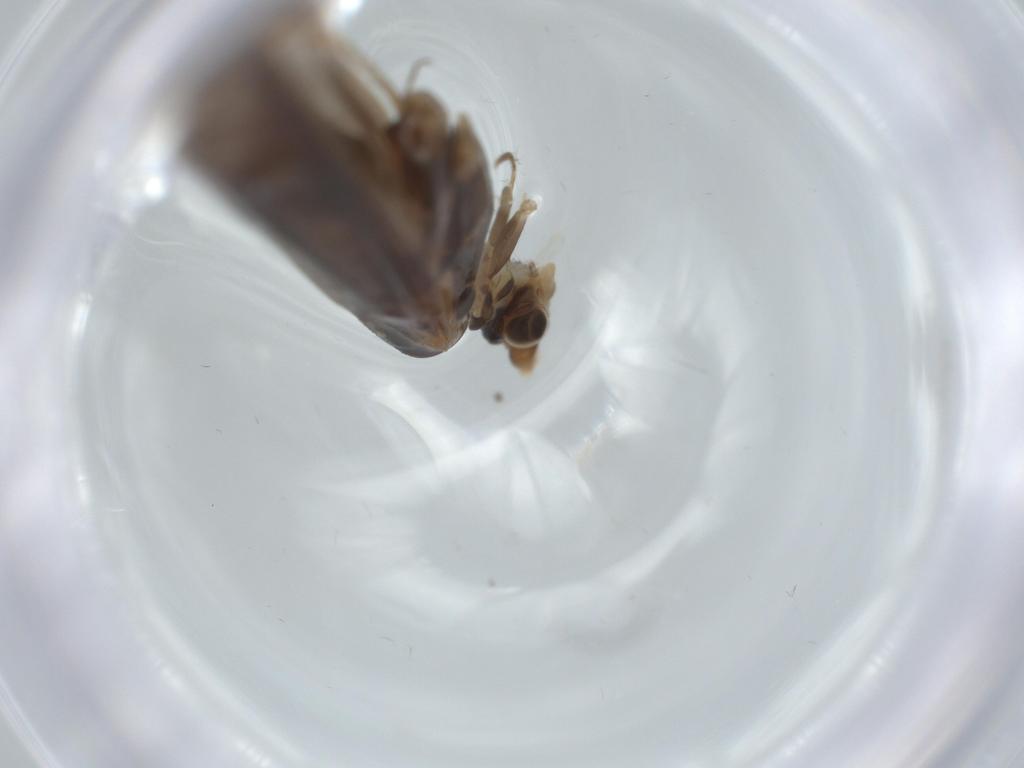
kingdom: Animalia
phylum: Arthropoda
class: Insecta
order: Trichoptera
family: Leptoceridae
